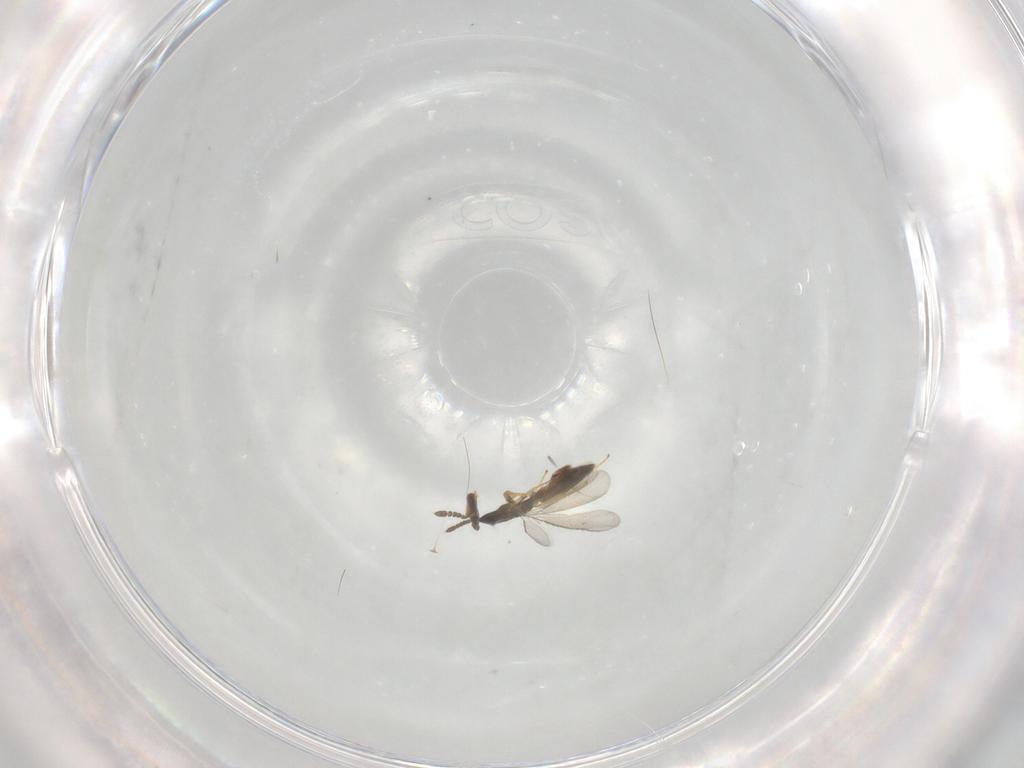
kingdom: Animalia
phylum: Arthropoda
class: Insecta
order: Hymenoptera
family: Eulophidae
